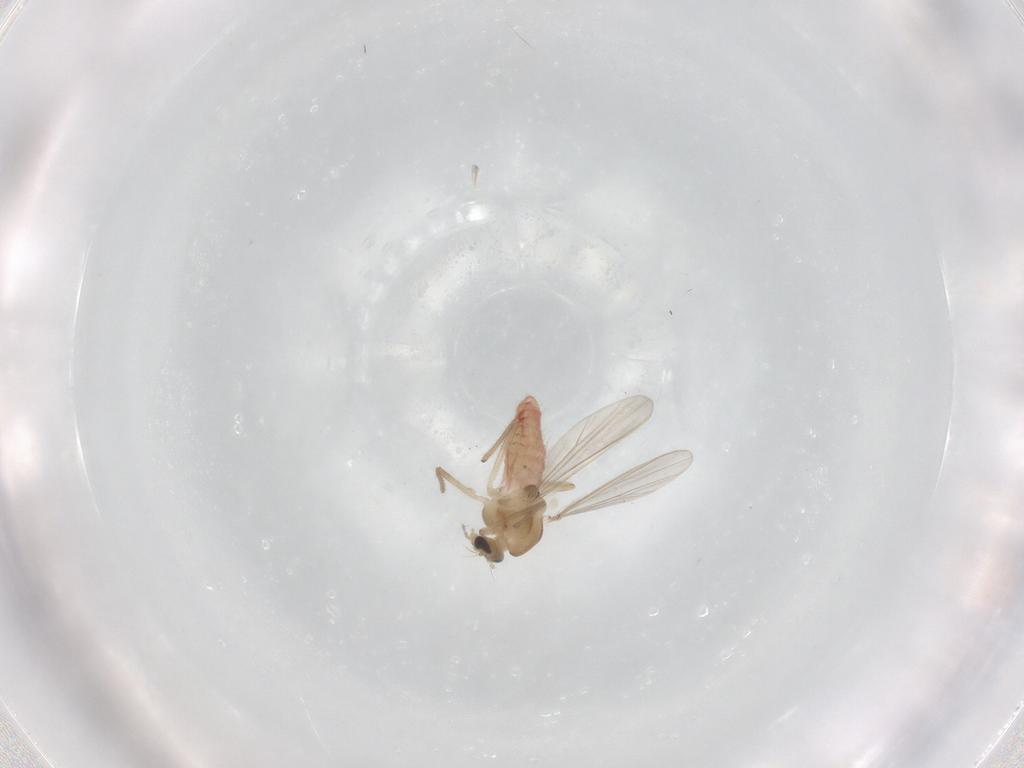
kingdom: Animalia
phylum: Arthropoda
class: Insecta
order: Diptera
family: Chironomidae
